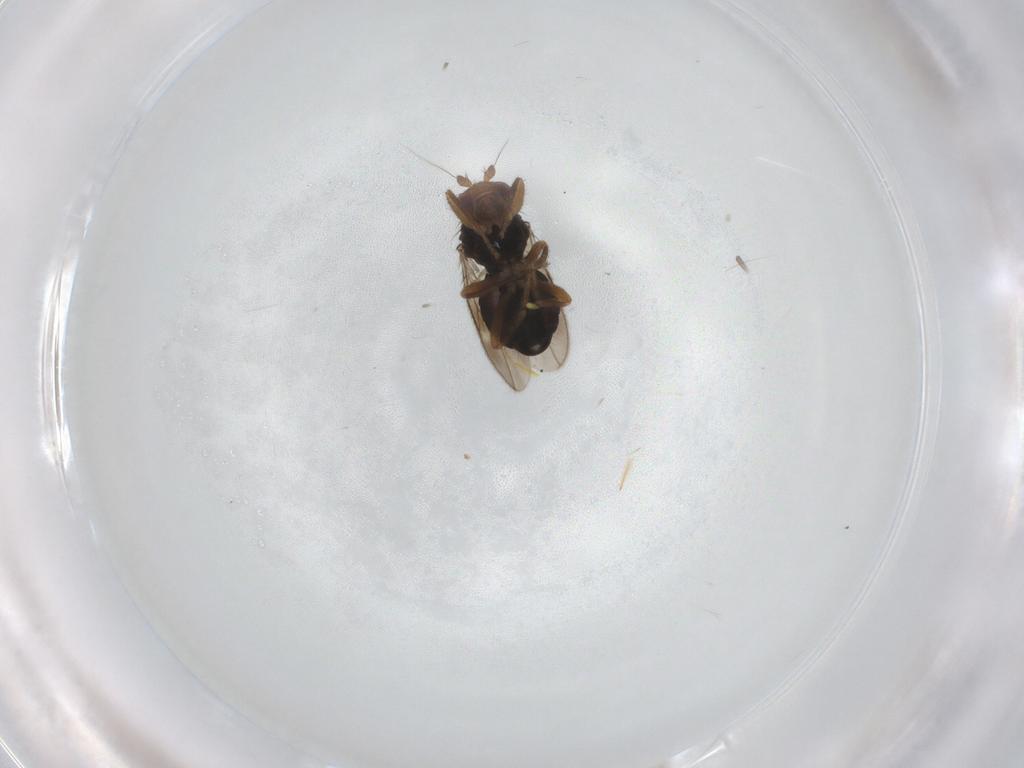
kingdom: Animalia
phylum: Arthropoda
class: Insecta
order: Diptera
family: Sphaeroceridae
